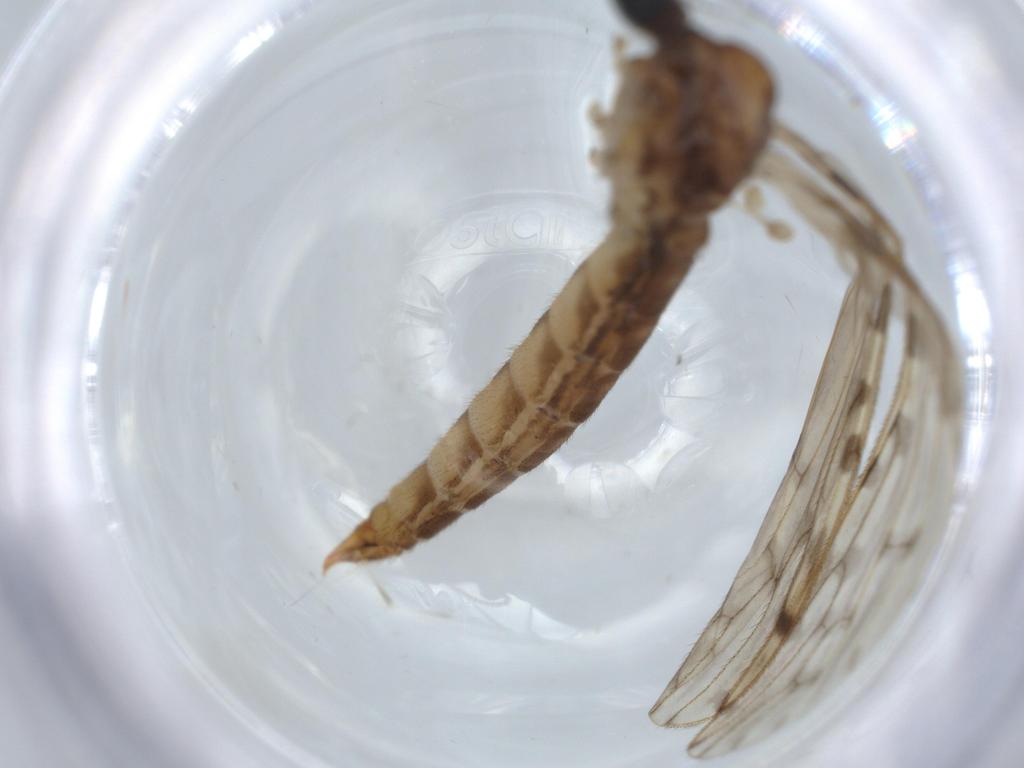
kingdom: Animalia
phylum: Arthropoda
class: Insecta
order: Diptera
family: Chironomidae
